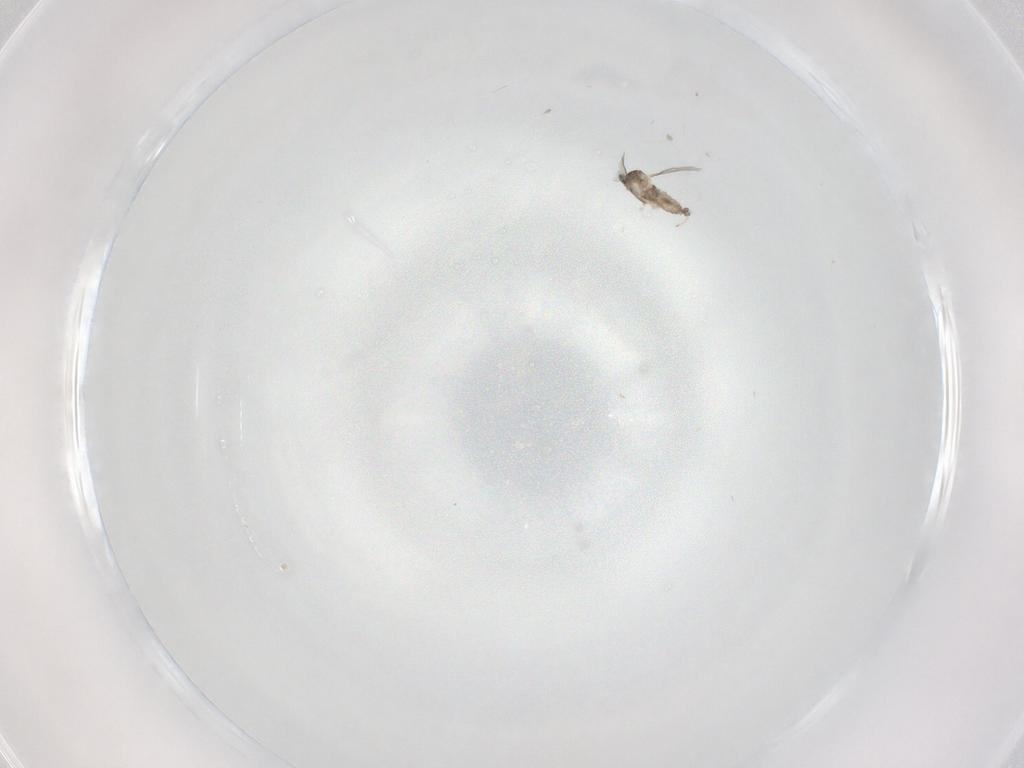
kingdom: Animalia
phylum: Arthropoda
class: Insecta
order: Diptera
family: Cecidomyiidae
